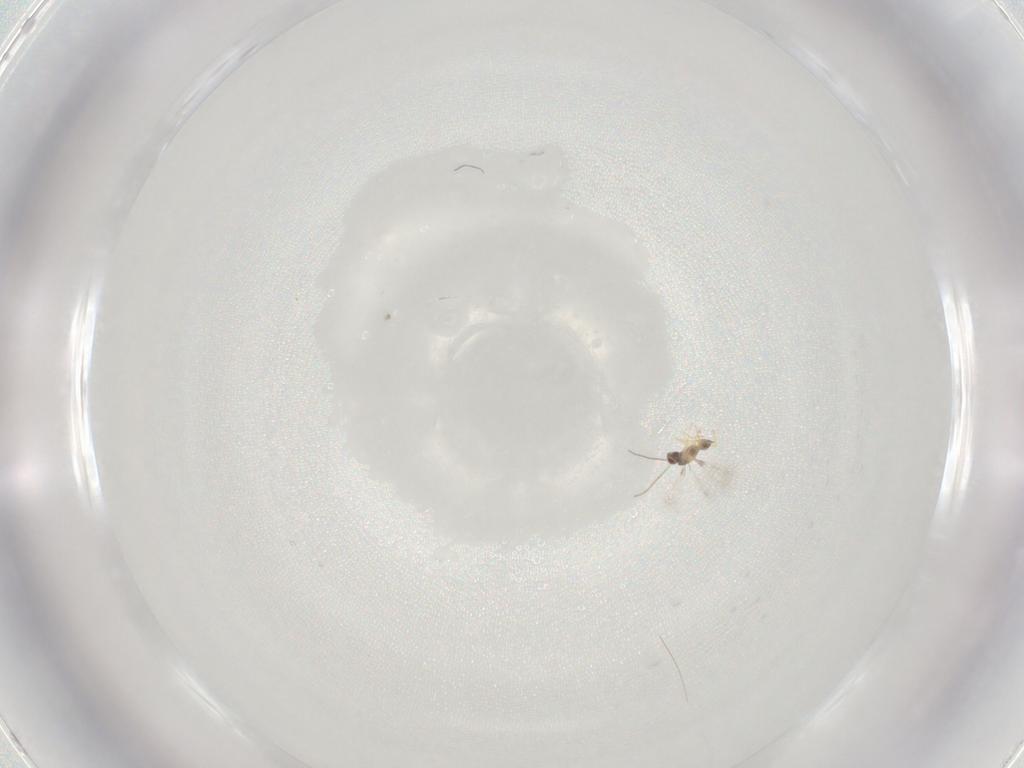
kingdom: Animalia
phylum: Arthropoda
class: Insecta
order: Hymenoptera
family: Mymaridae
